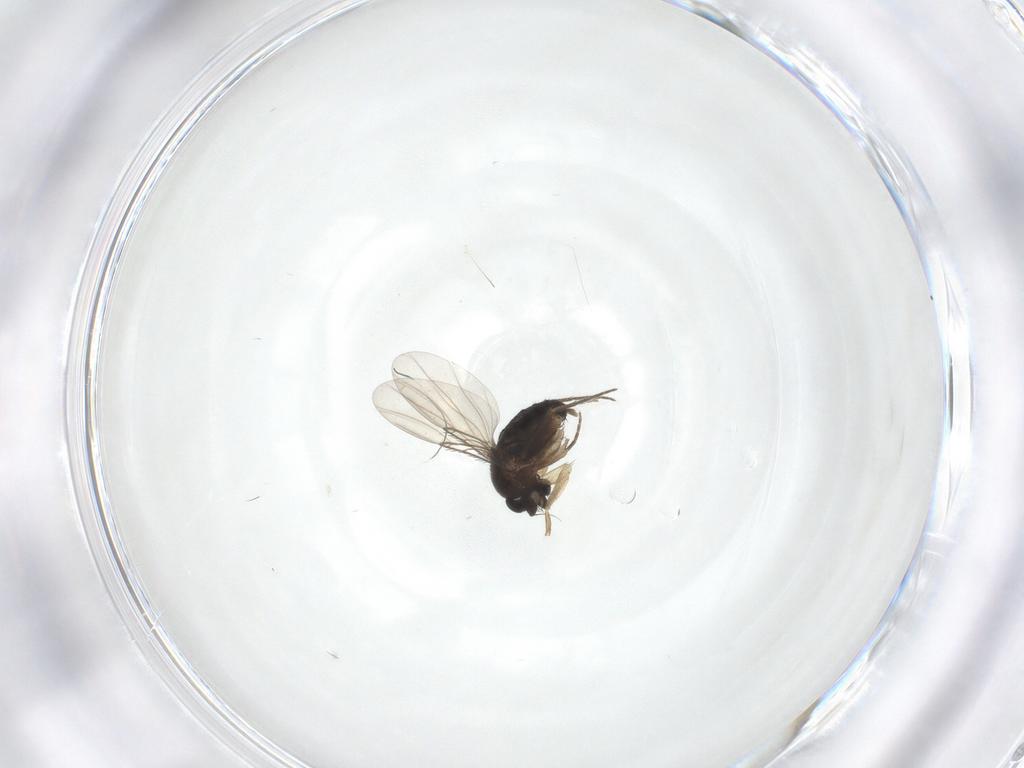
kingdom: Animalia
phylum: Arthropoda
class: Insecta
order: Diptera
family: Phoridae
